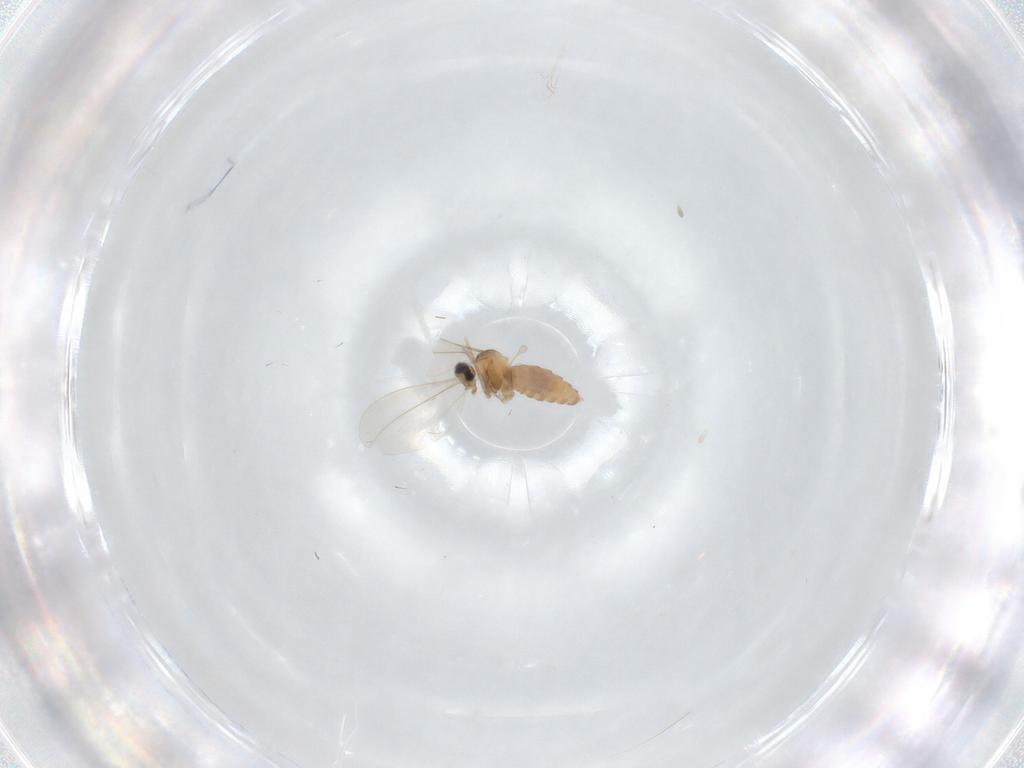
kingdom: Animalia
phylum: Arthropoda
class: Insecta
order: Diptera
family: Cecidomyiidae
